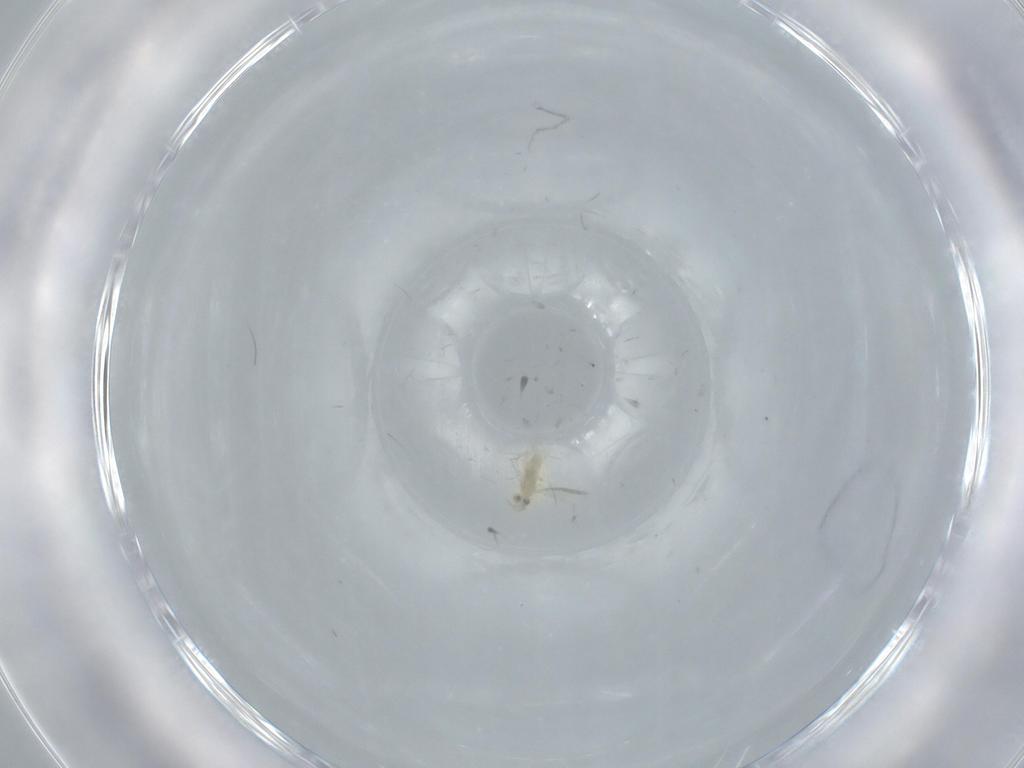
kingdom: Animalia
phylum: Arthropoda
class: Insecta
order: Hymenoptera
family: Aphelinidae
